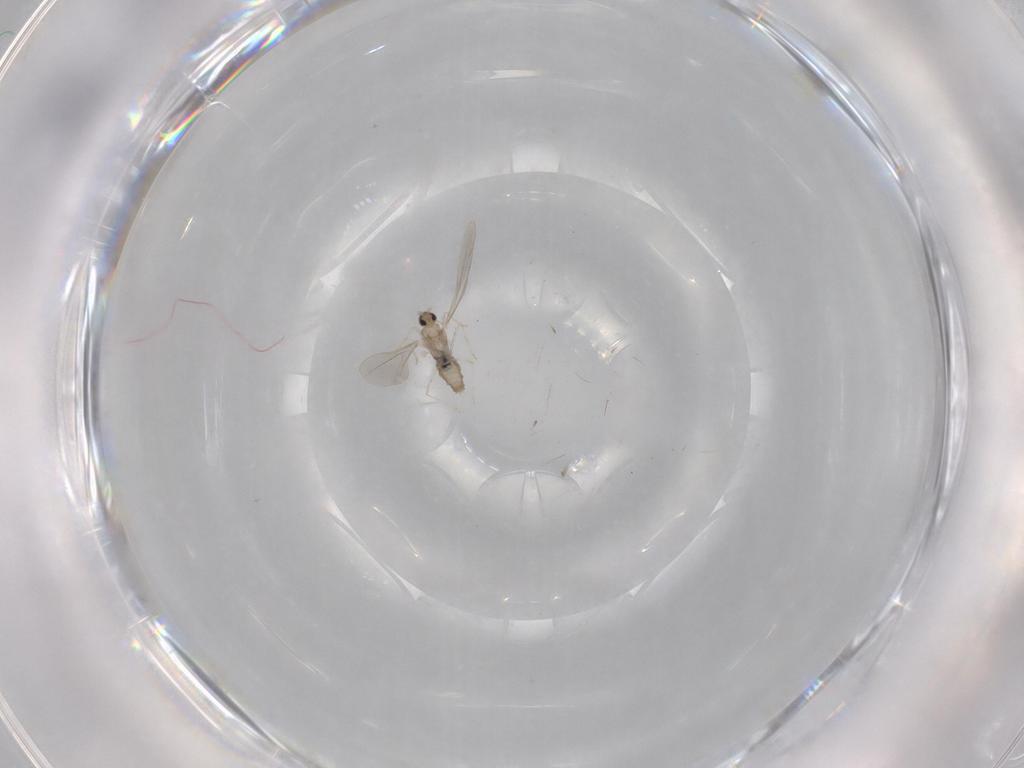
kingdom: Animalia
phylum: Arthropoda
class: Insecta
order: Diptera
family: Cecidomyiidae
